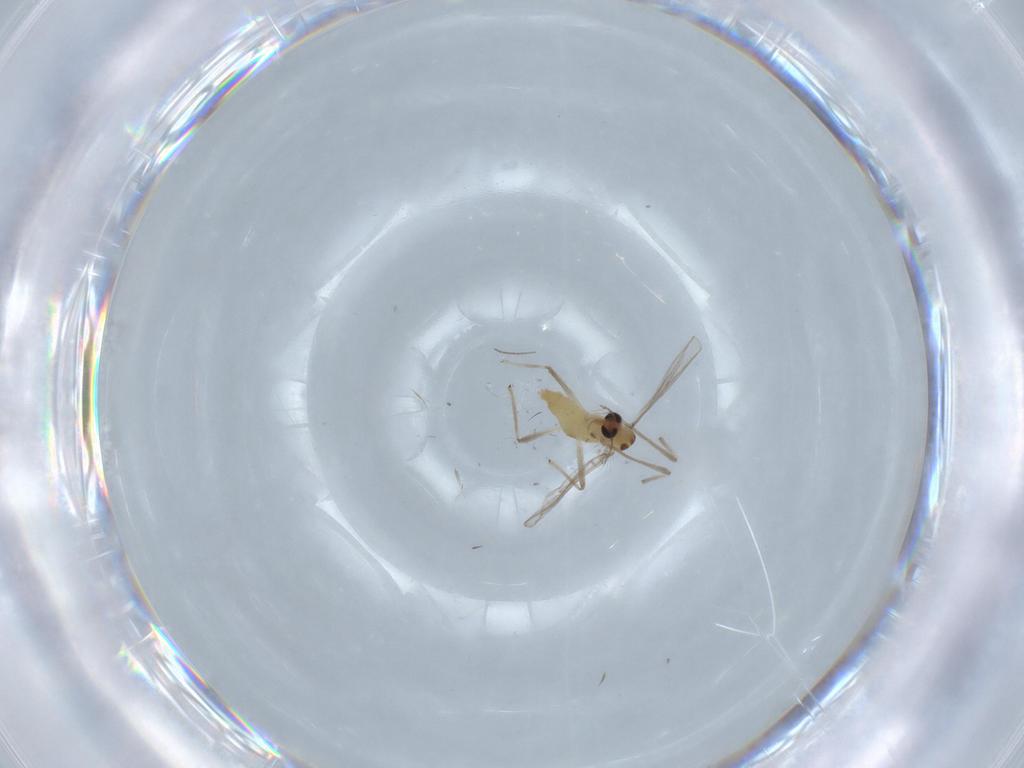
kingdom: Animalia
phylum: Arthropoda
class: Insecta
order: Diptera
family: Chironomidae
